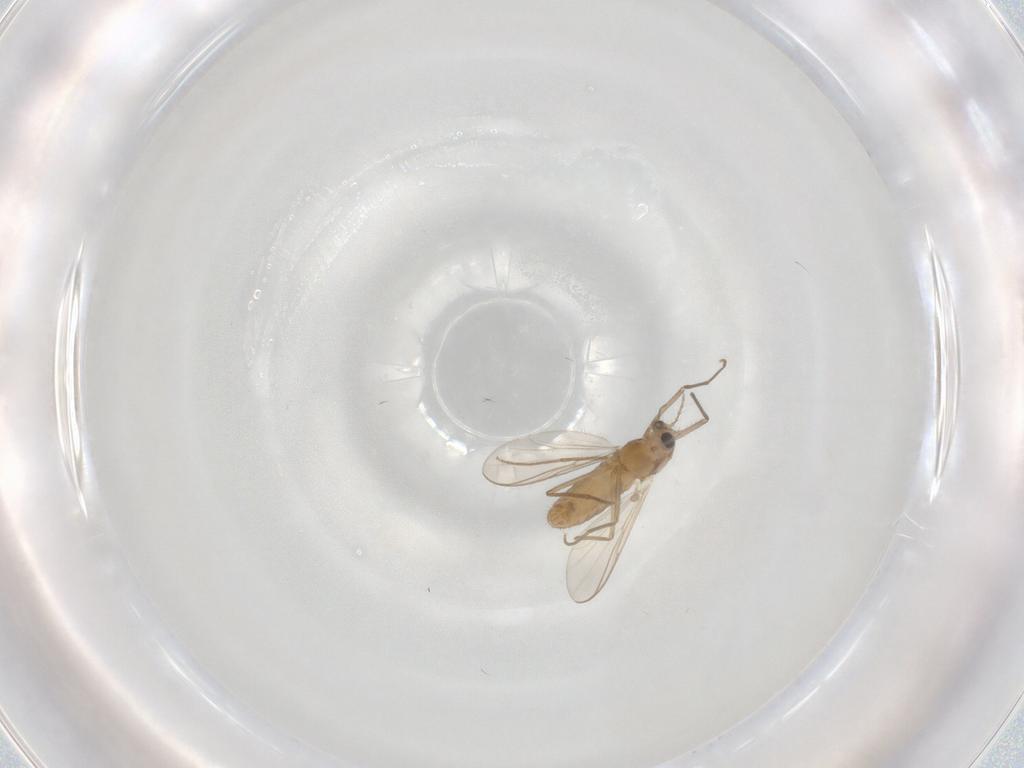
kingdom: Animalia
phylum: Arthropoda
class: Insecta
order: Diptera
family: Chironomidae
